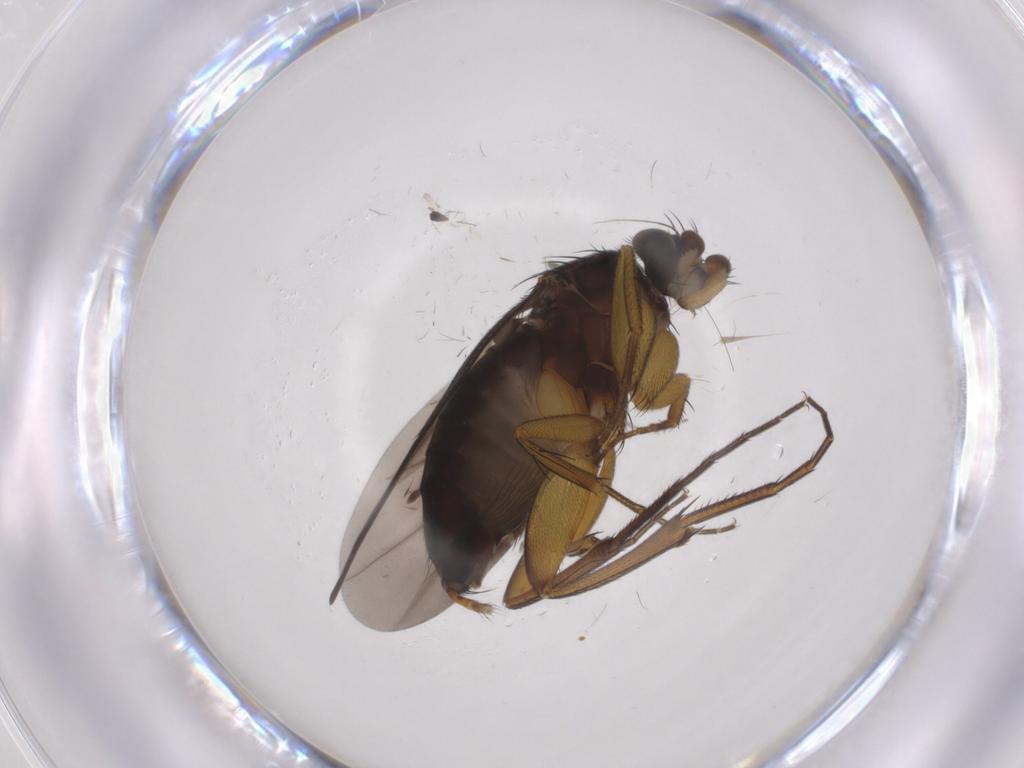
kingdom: Animalia
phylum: Arthropoda
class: Insecta
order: Diptera
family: Phoridae
